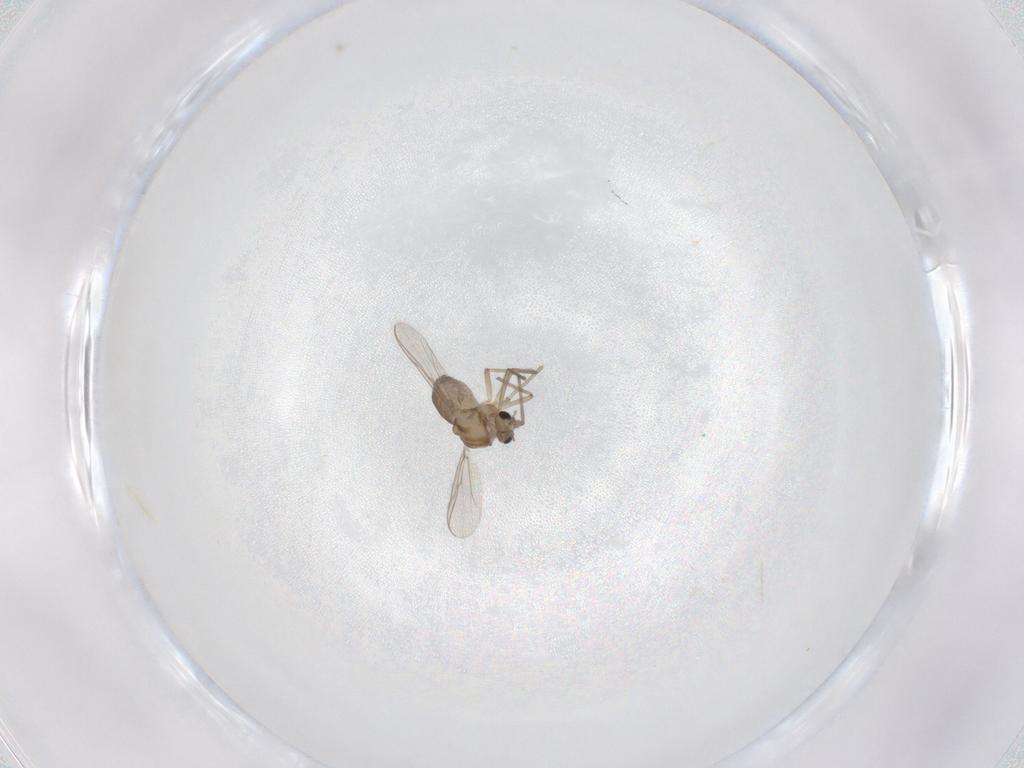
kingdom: Animalia
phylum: Arthropoda
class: Insecta
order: Diptera
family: Chironomidae
